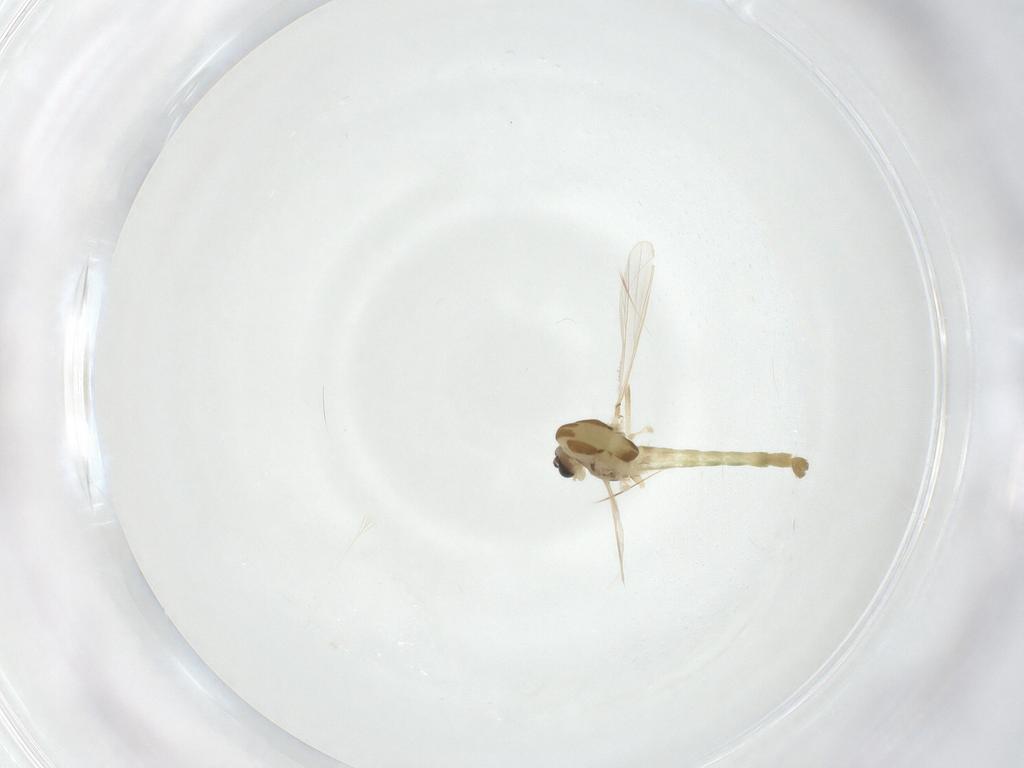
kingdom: Animalia
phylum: Arthropoda
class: Insecta
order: Diptera
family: Chironomidae
